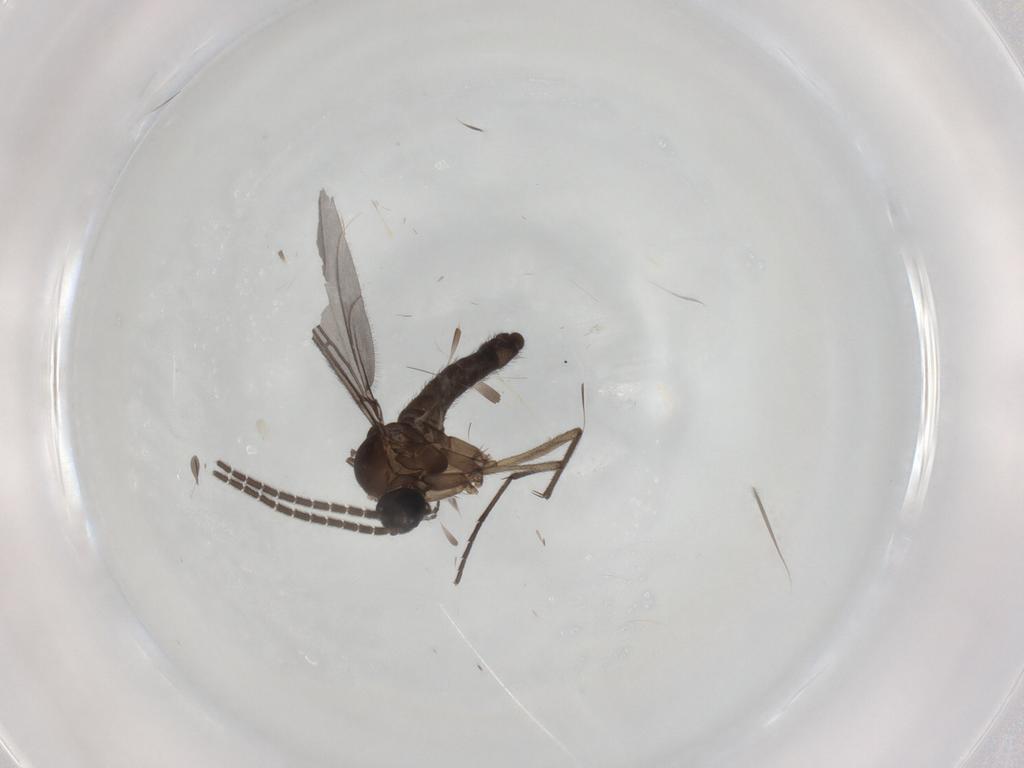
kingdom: Animalia
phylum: Arthropoda
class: Insecta
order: Diptera
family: Sciaridae
